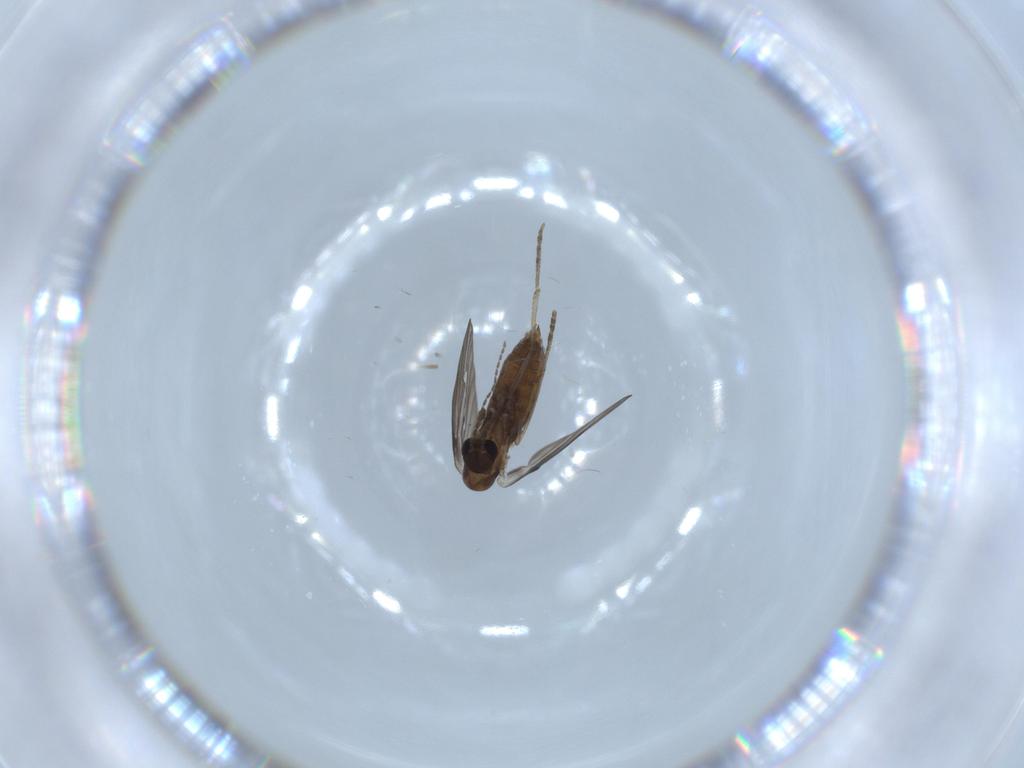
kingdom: Animalia
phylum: Arthropoda
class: Insecta
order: Diptera
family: Psychodidae
